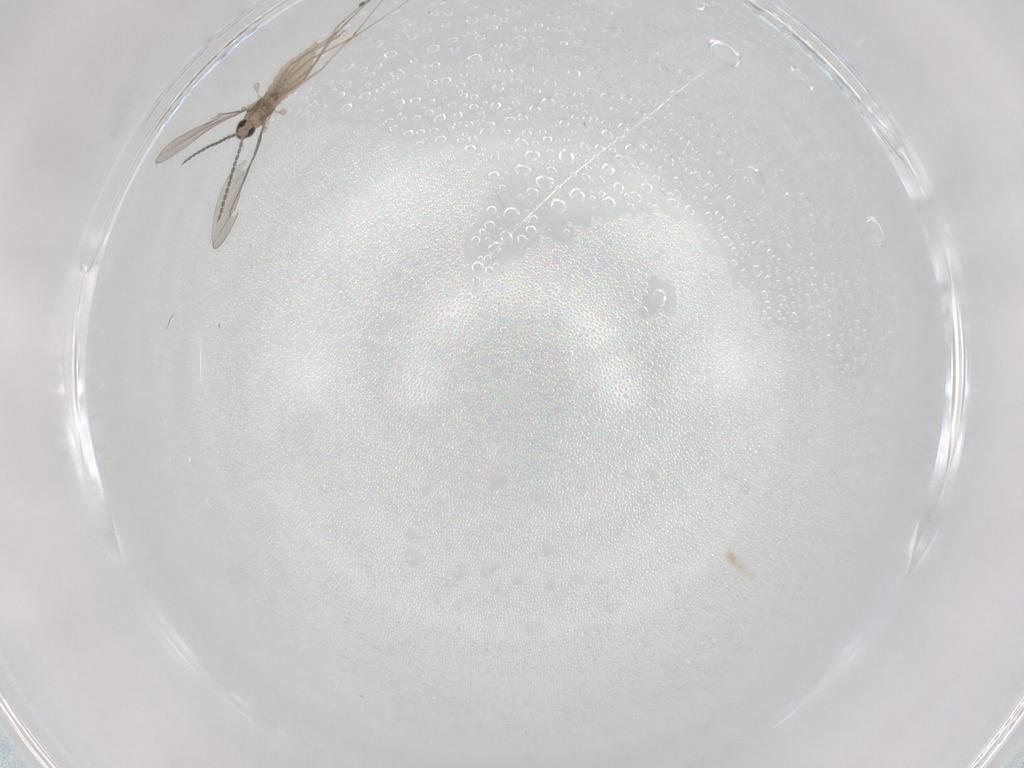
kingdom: Animalia
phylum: Arthropoda
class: Insecta
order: Diptera
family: Cecidomyiidae
